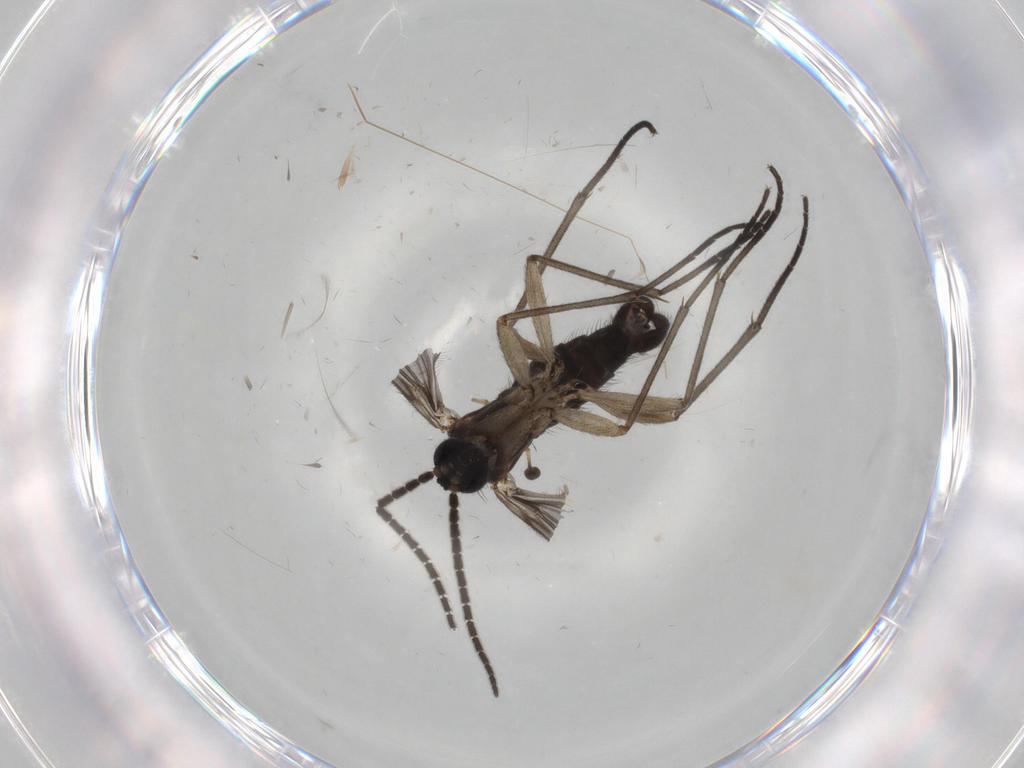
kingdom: Animalia
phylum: Arthropoda
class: Insecta
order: Diptera
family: Sciaridae
